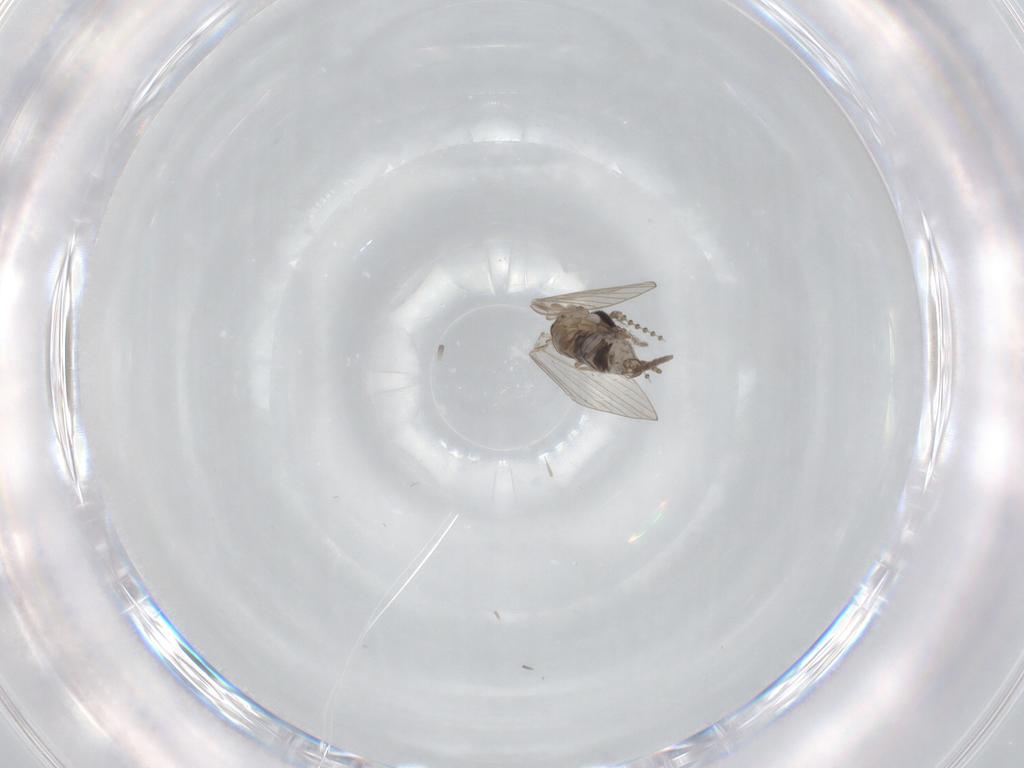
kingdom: Animalia
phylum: Arthropoda
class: Insecta
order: Diptera
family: Psychodidae
